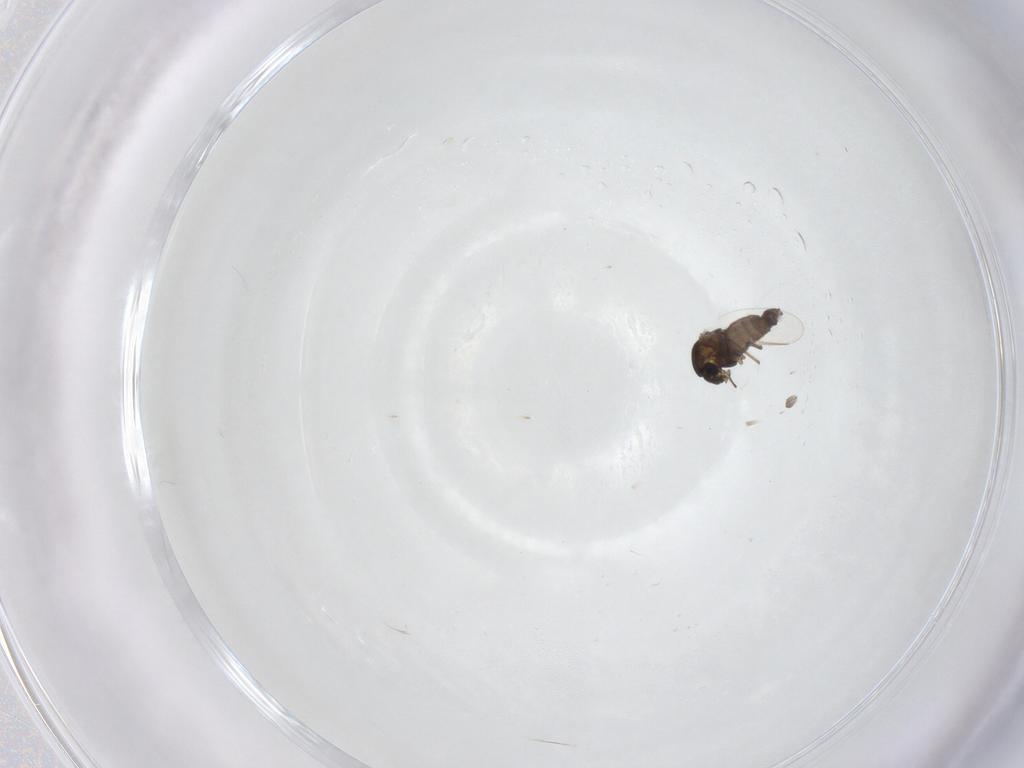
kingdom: Animalia
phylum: Arthropoda
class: Insecta
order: Diptera
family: Chironomidae
